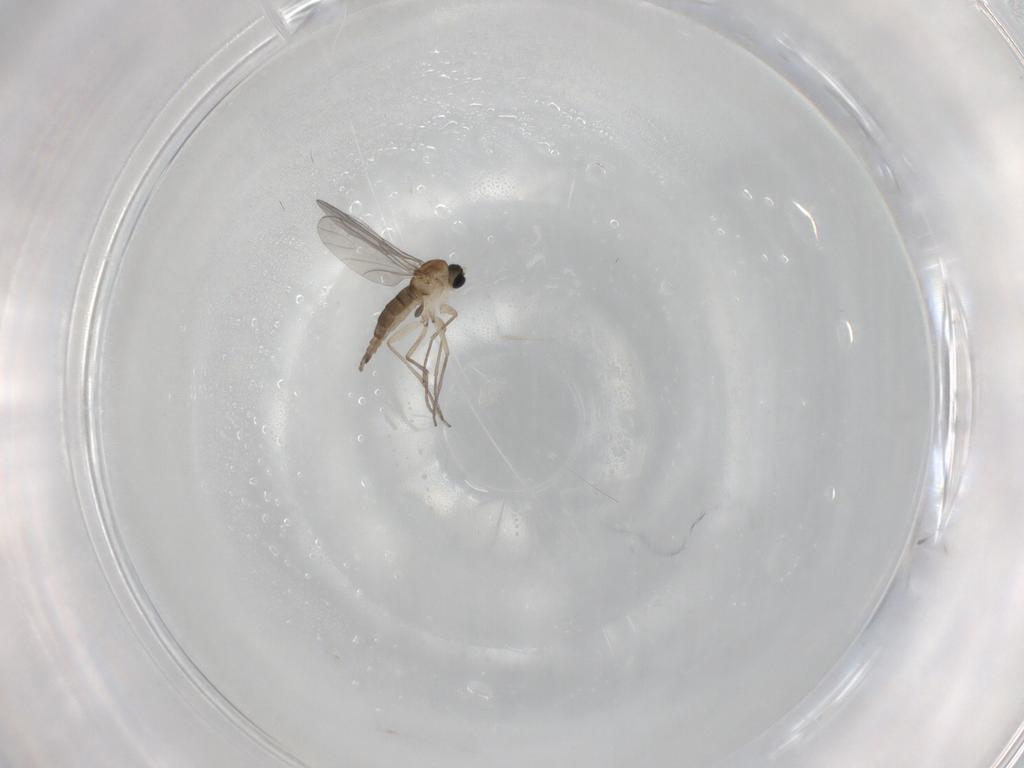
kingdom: Animalia
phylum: Arthropoda
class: Insecta
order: Diptera
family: Sciaridae
